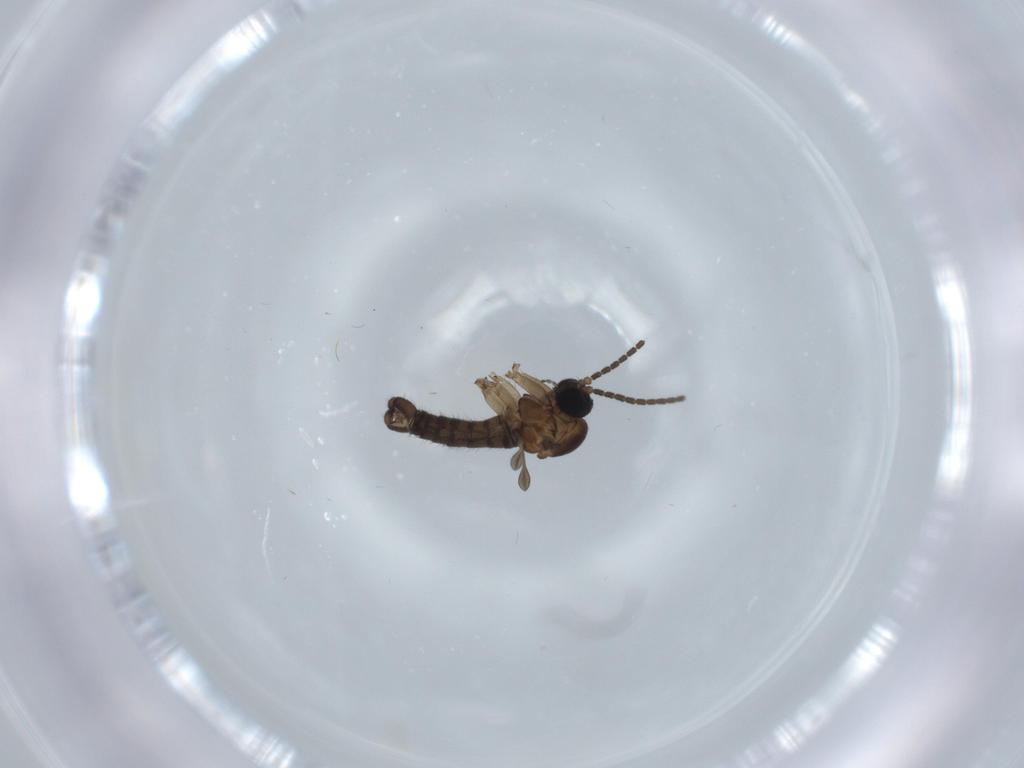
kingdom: Animalia
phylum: Arthropoda
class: Insecta
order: Diptera
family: Sciaridae
